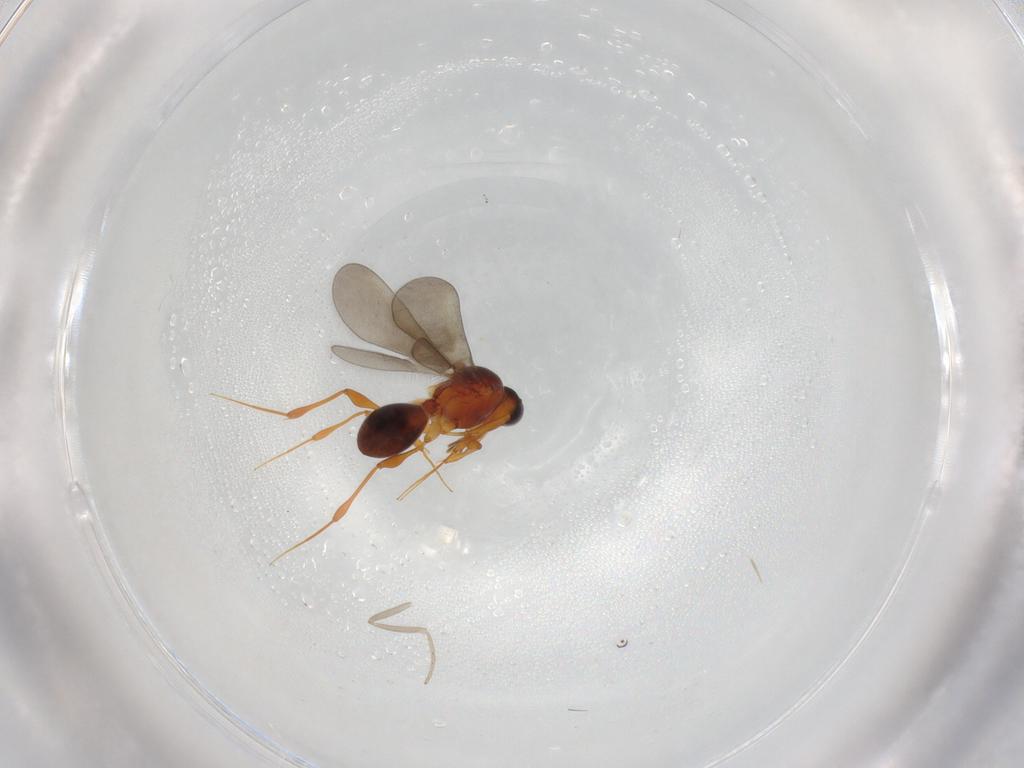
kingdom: Animalia
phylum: Arthropoda
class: Insecta
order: Hymenoptera
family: Platygastridae
